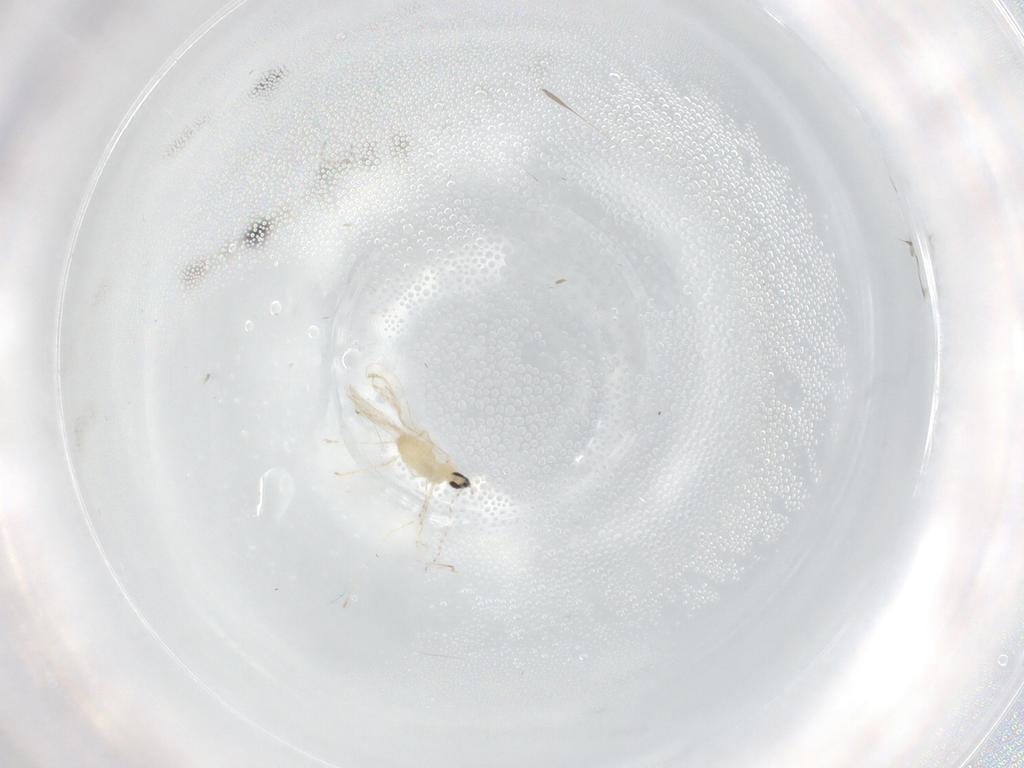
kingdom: Animalia
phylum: Arthropoda
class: Insecta
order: Diptera
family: Cecidomyiidae
